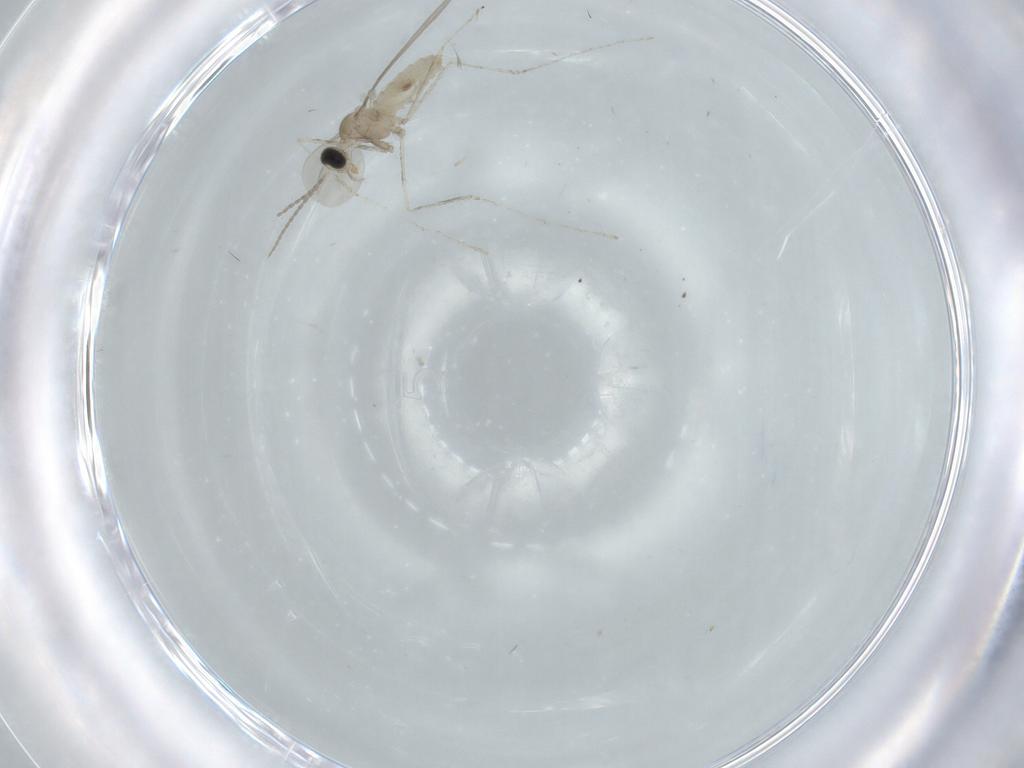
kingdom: Animalia
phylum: Arthropoda
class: Insecta
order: Diptera
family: Cecidomyiidae
